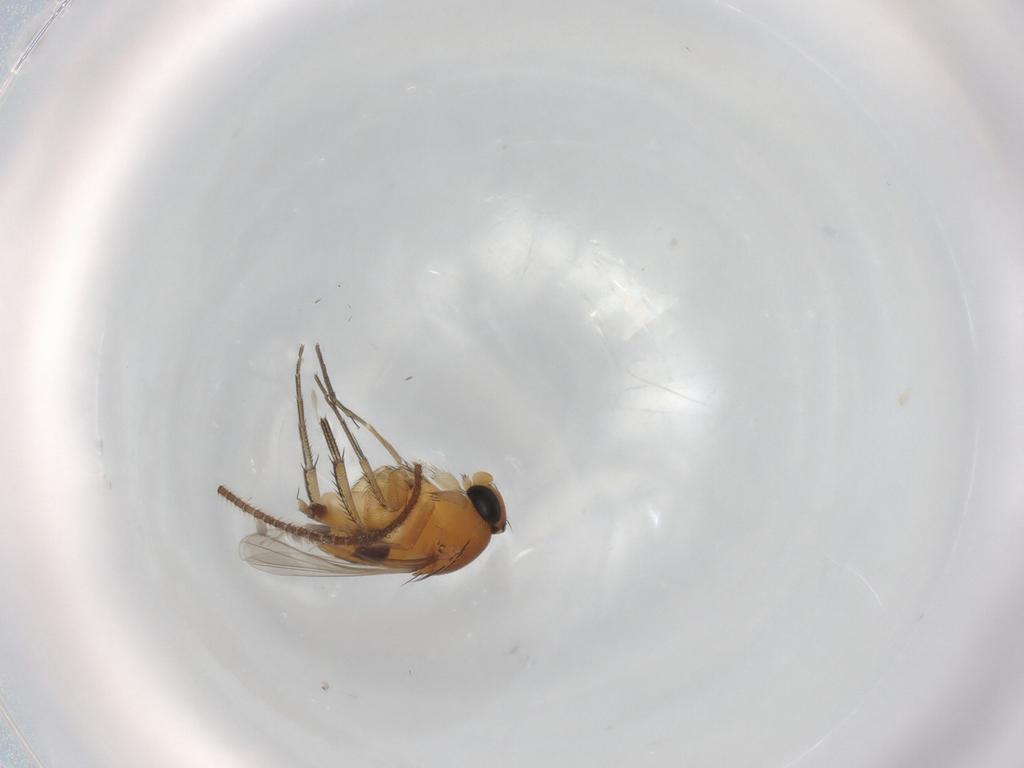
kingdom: Animalia
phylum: Arthropoda
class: Insecta
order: Diptera
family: Phoridae
